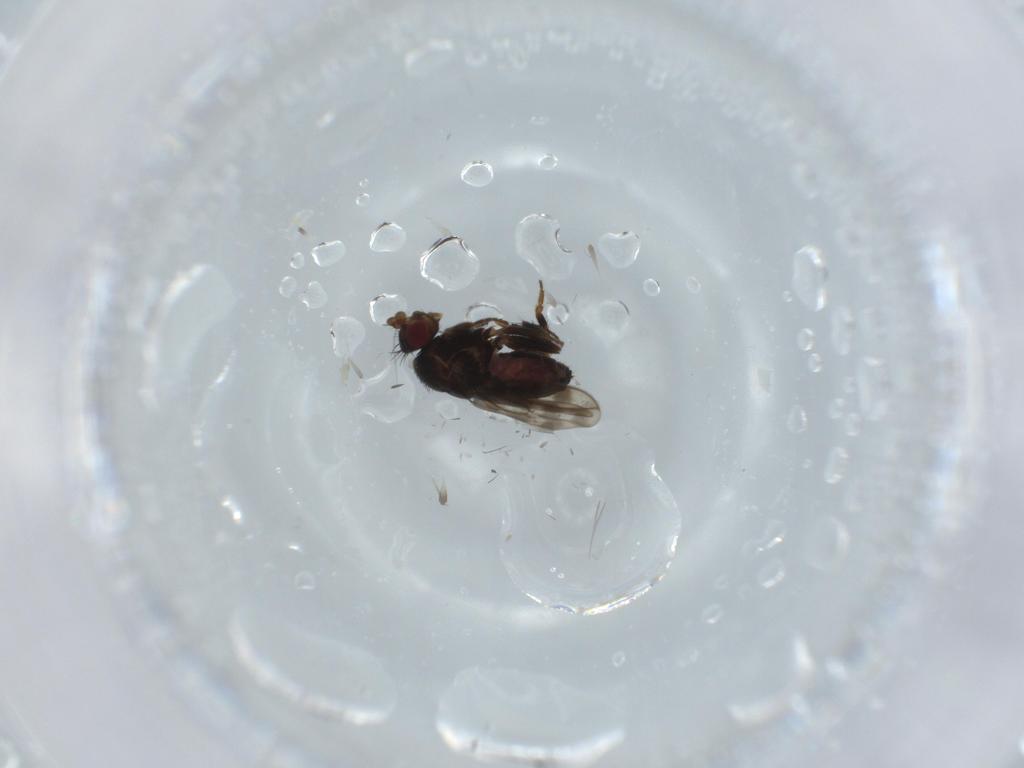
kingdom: Animalia
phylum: Arthropoda
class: Insecta
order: Diptera
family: Sphaeroceridae
